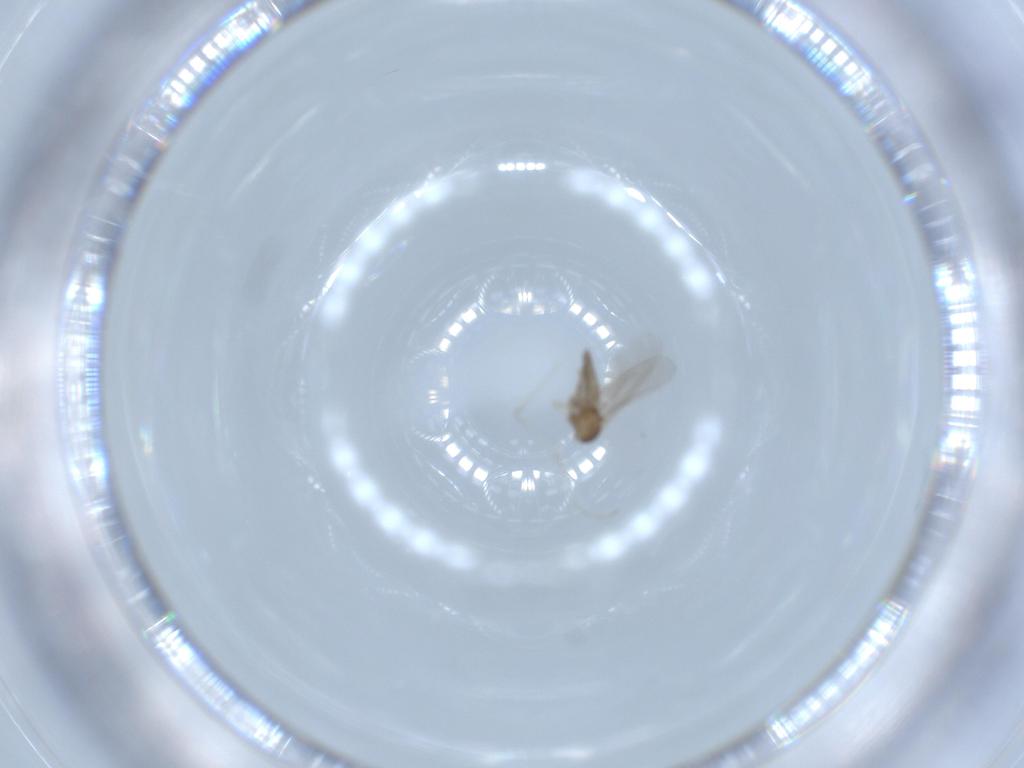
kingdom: Animalia
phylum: Arthropoda
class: Insecta
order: Diptera
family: Cecidomyiidae
